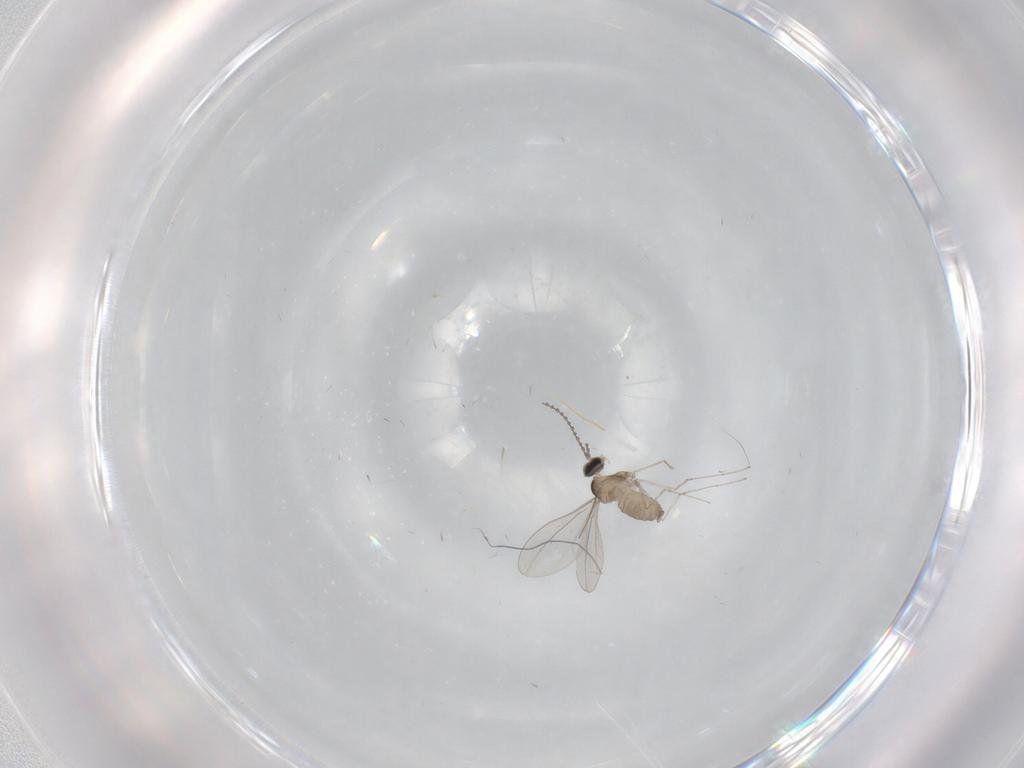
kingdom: Animalia
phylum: Arthropoda
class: Insecta
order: Diptera
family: Cecidomyiidae
